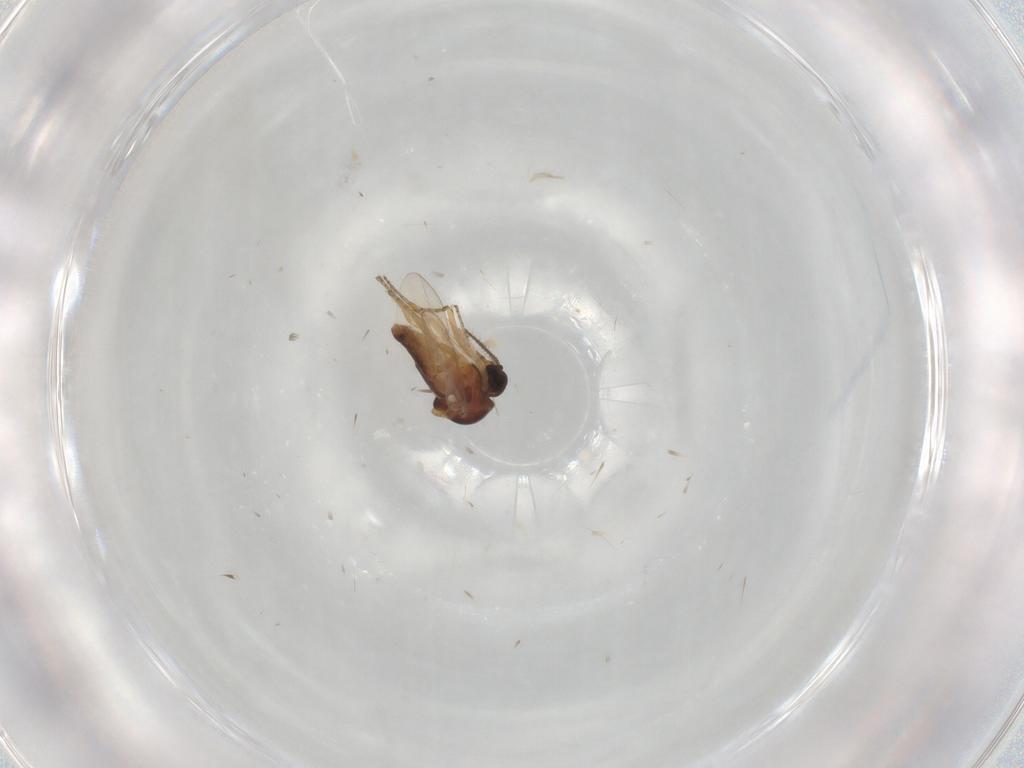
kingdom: Animalia
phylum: Arthropoda
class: Insecta
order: Diptera
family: Ceratopogonidae
